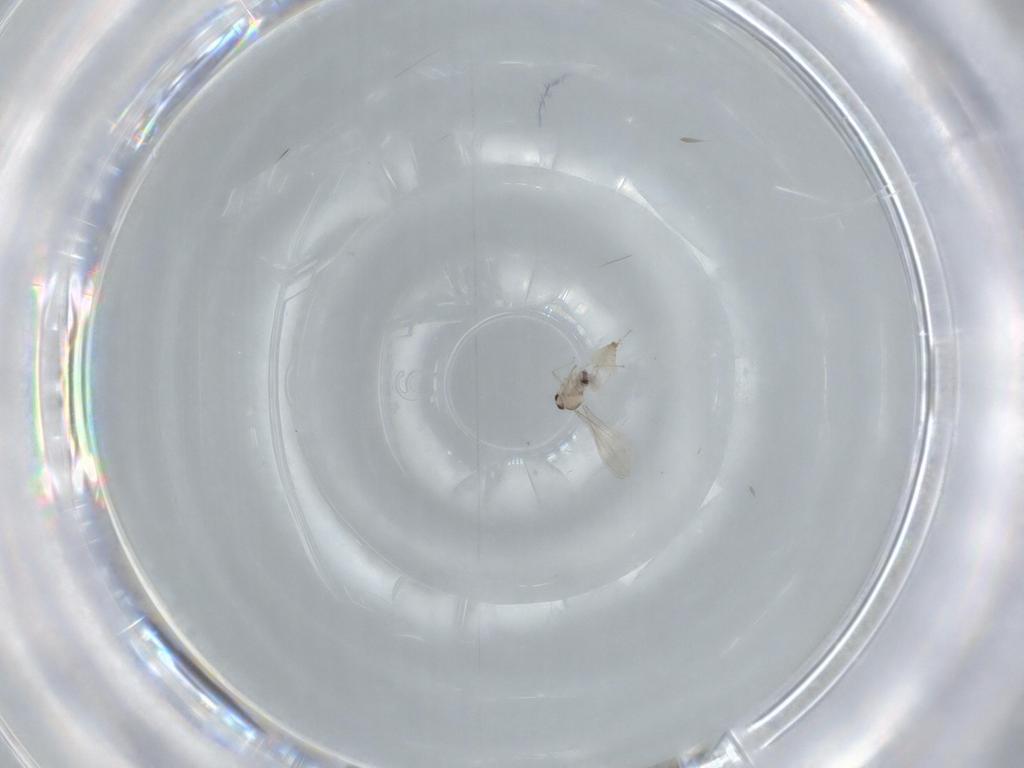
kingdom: Animalia
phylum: Arthropoda
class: Insecta
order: Diptera
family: Cecidomyiidae
